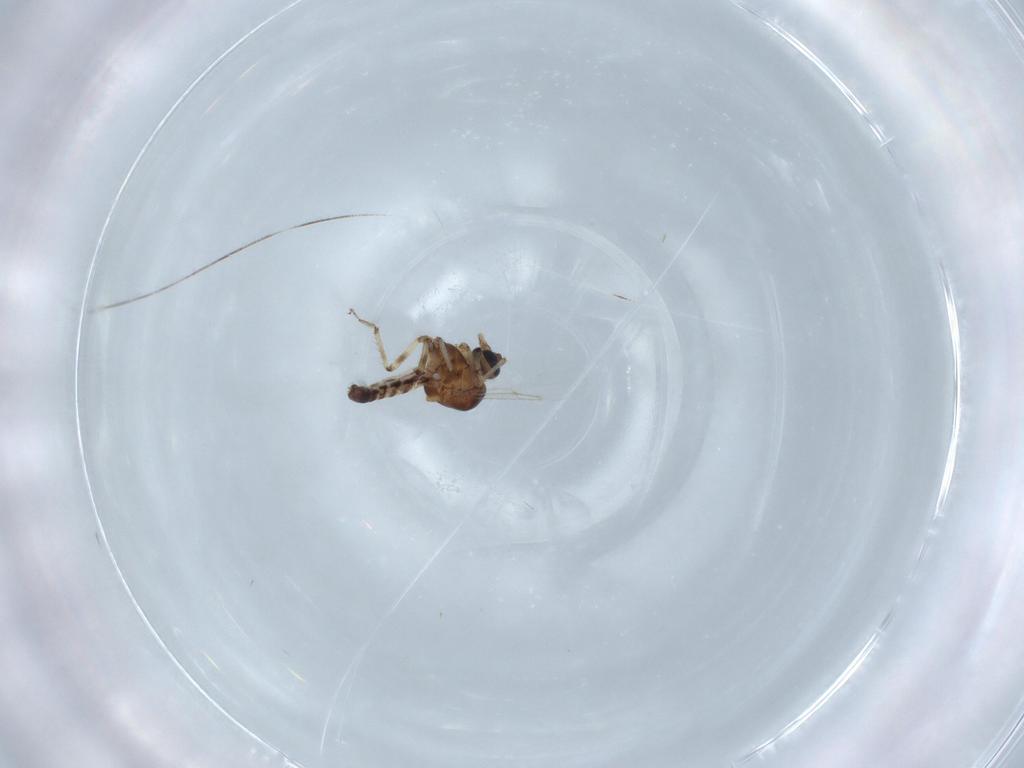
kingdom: Animalia
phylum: Arthropoda
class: Insecta
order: Diptera
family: Ceratopogonidae
